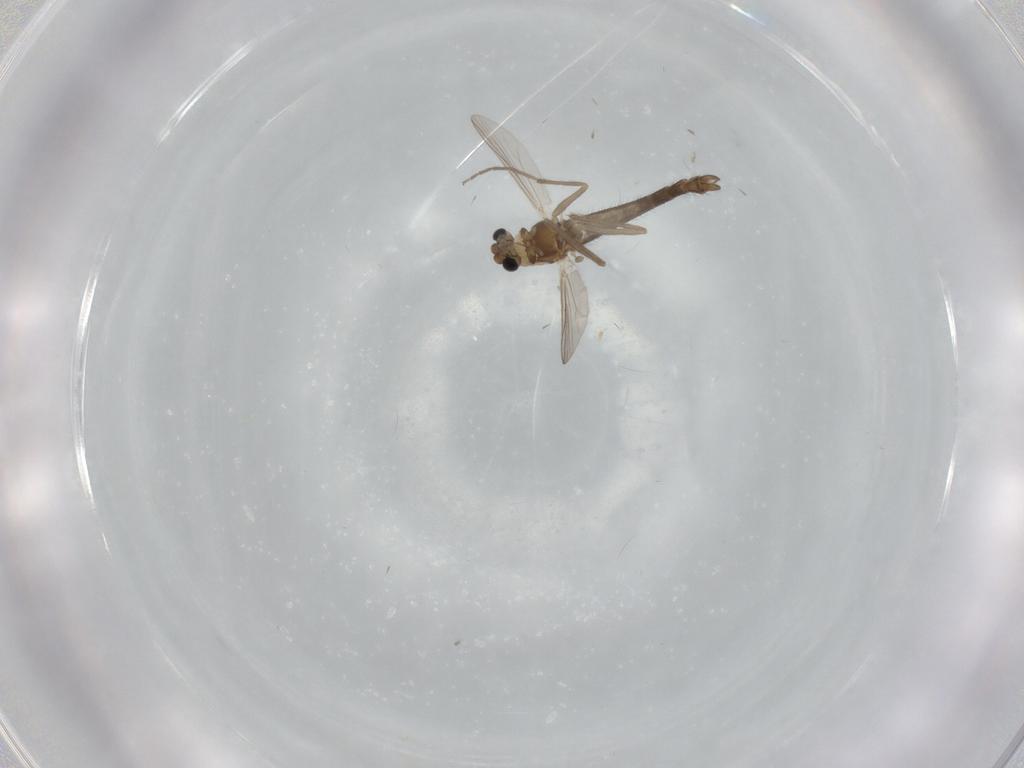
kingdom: Animalia
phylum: Arthropoda
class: Insecta
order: Diptera
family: Chironomidae
